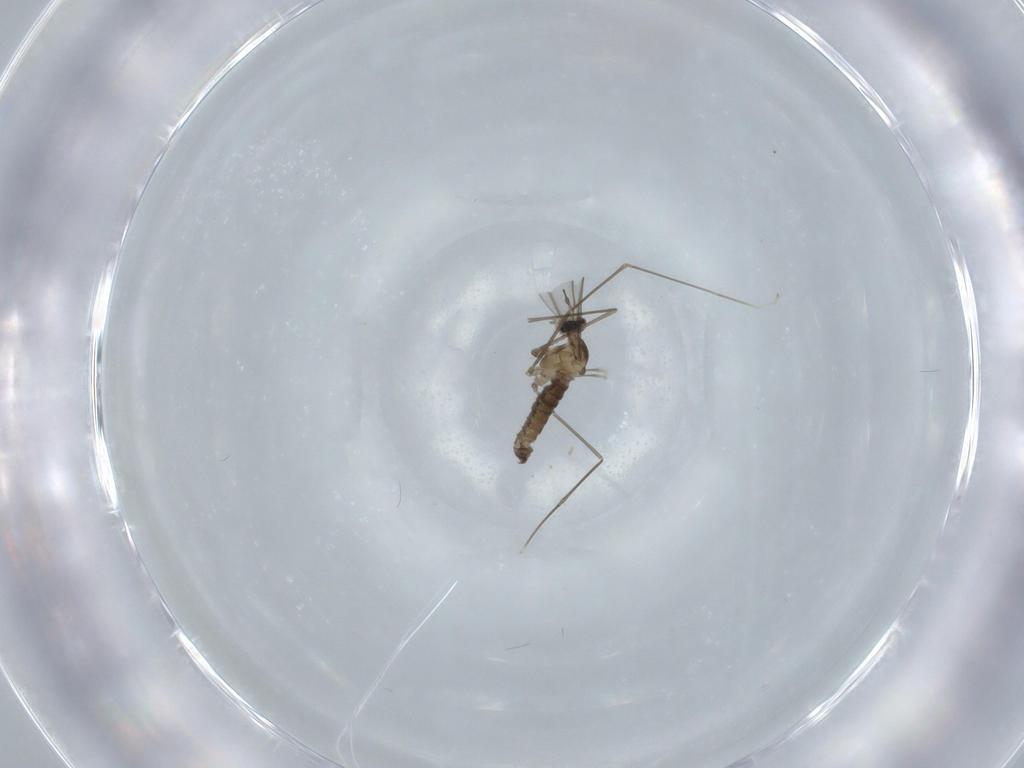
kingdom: Animalia
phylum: Arthropoda
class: Insecta
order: Diptera
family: Cecidomyiidae
